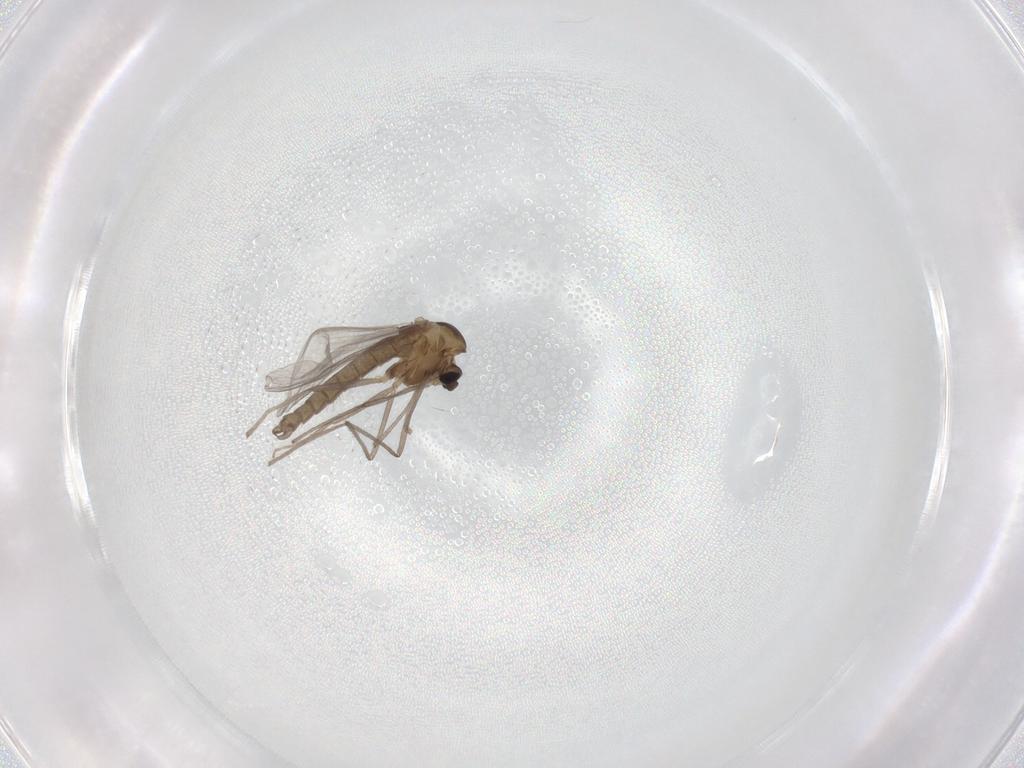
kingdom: Animalia
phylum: Arthropoda
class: Insecta
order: Diptera
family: Chironomidae
